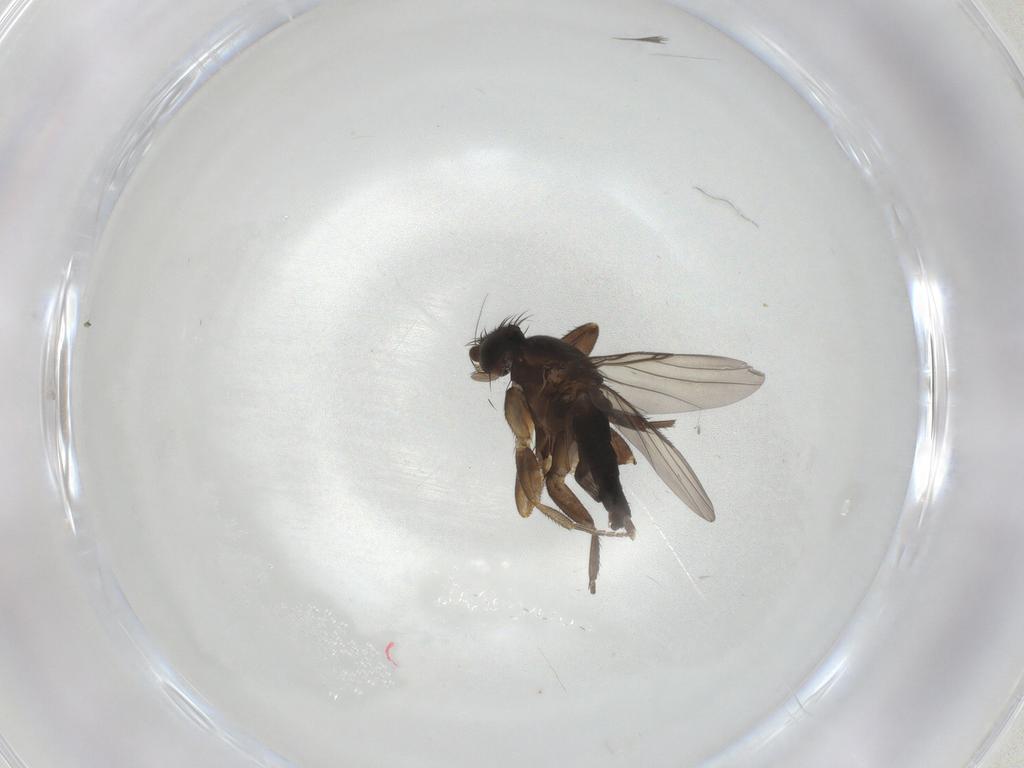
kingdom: Animalia
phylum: Arthropoda
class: Insecta
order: Diptera
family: Phoridae
